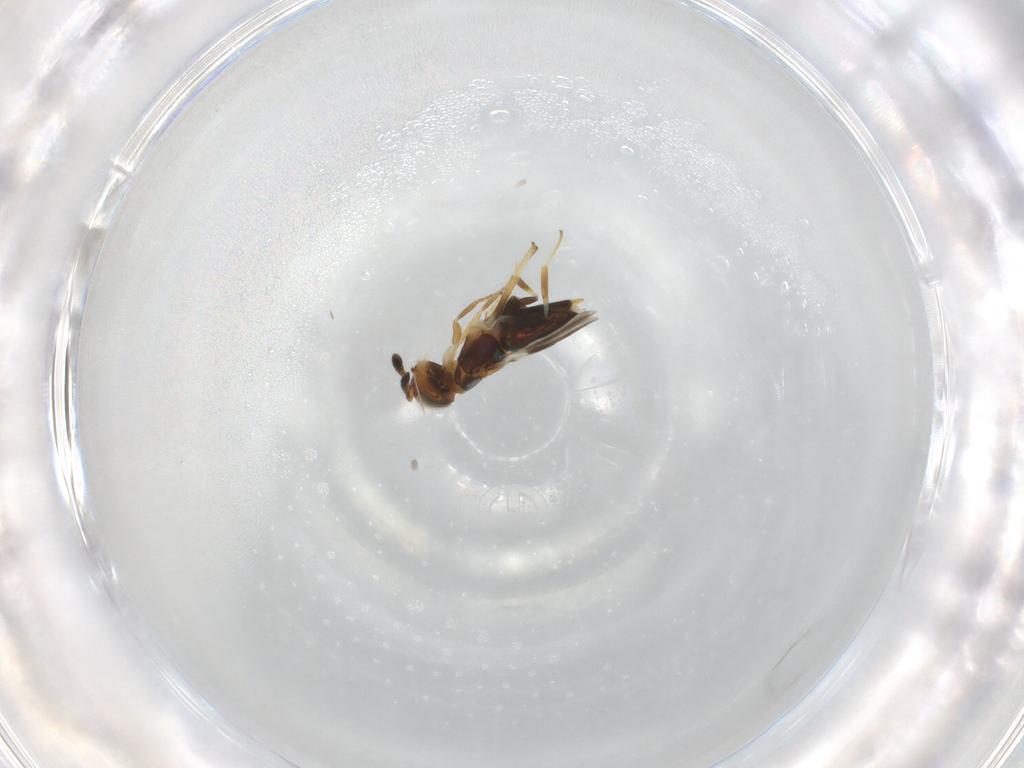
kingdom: Animalia
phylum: Arthropoda
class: Insecta
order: Hymenoptera
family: Encyrtidae
